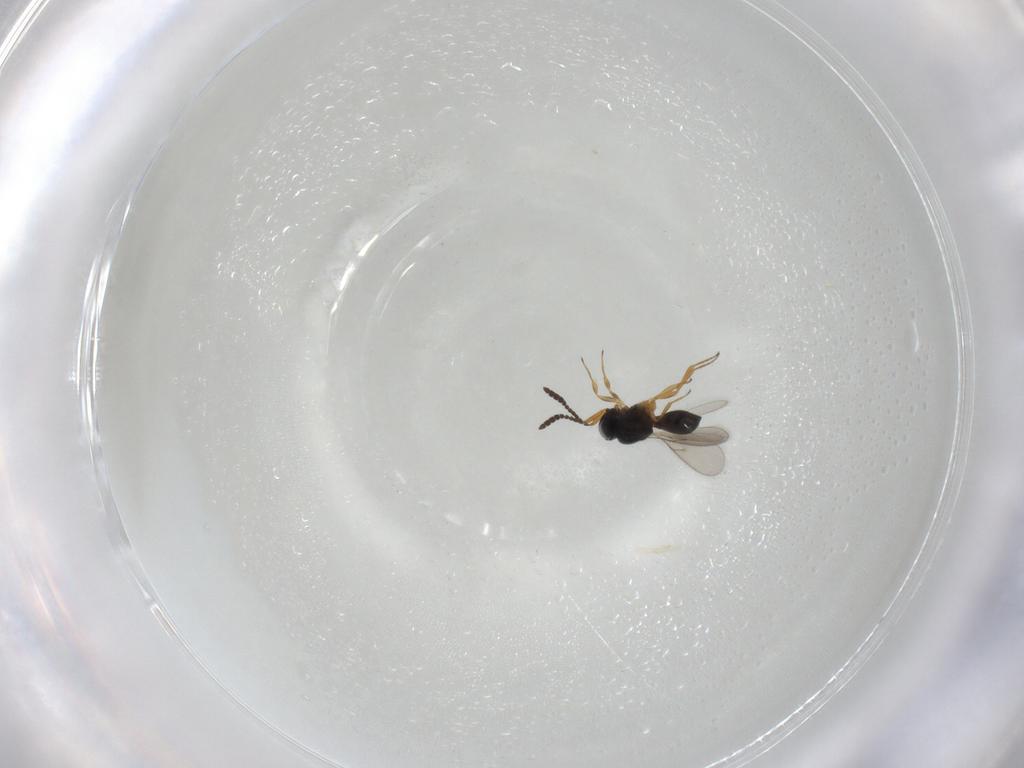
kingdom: Animalia
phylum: Arthropoda
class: Insecta
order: Hymenoptera
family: Scelionidae
